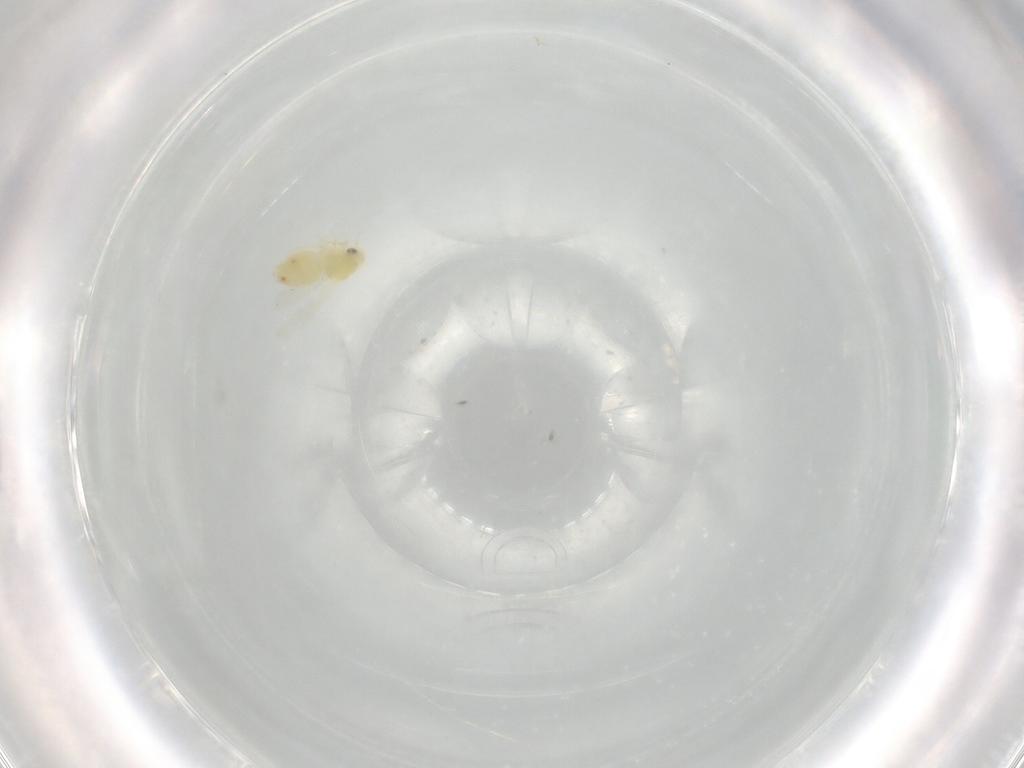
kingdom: Animalia
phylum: Arthropoda
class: Insecta
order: Hemiptera
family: Aleyrodidae
